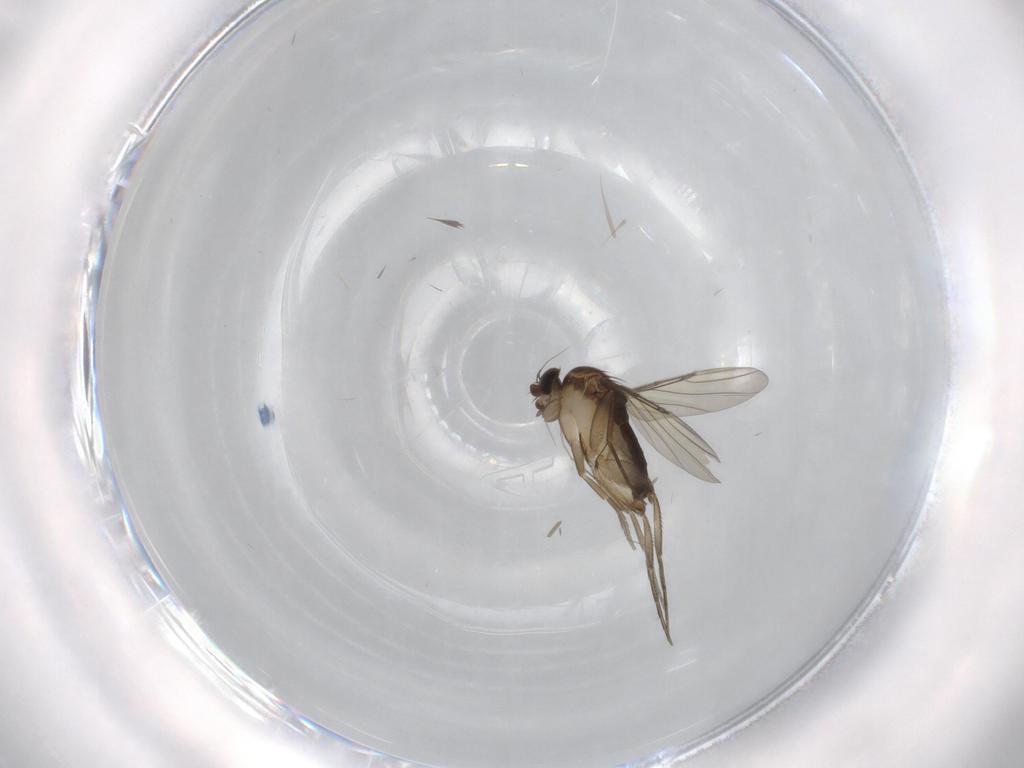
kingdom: Animalia
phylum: Arthropoda
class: Insecta
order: Diptera
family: Phoridae
